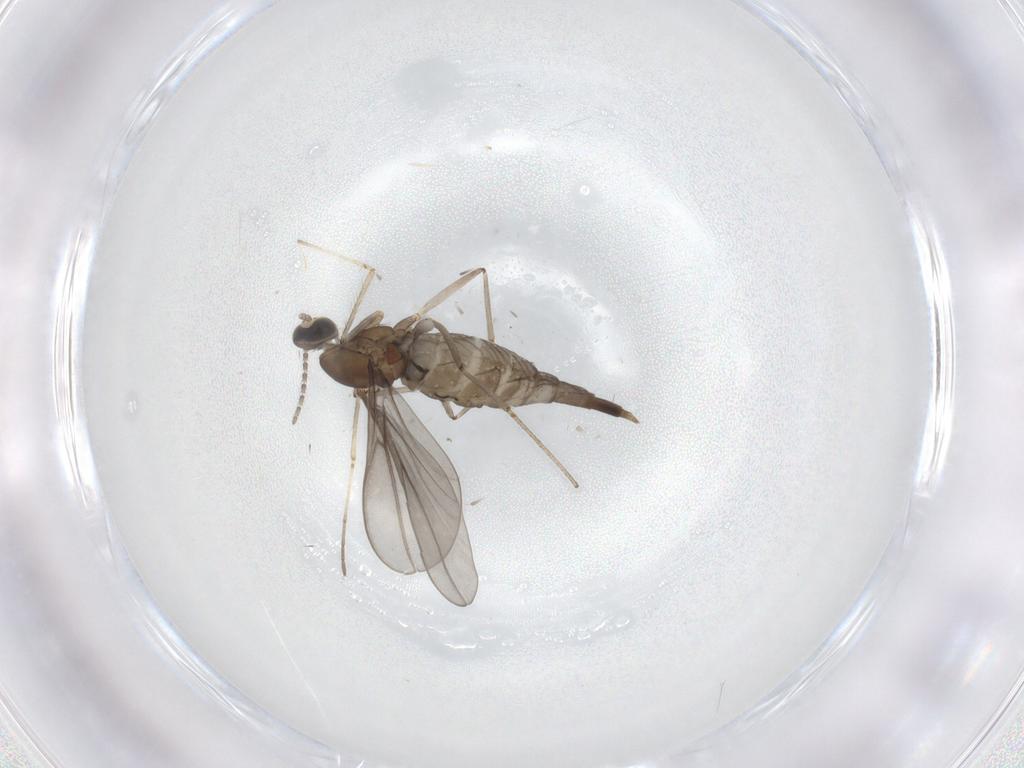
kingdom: Animalia
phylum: Arthropoda
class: Insecta
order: Diptera
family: Cecidomyiidae
